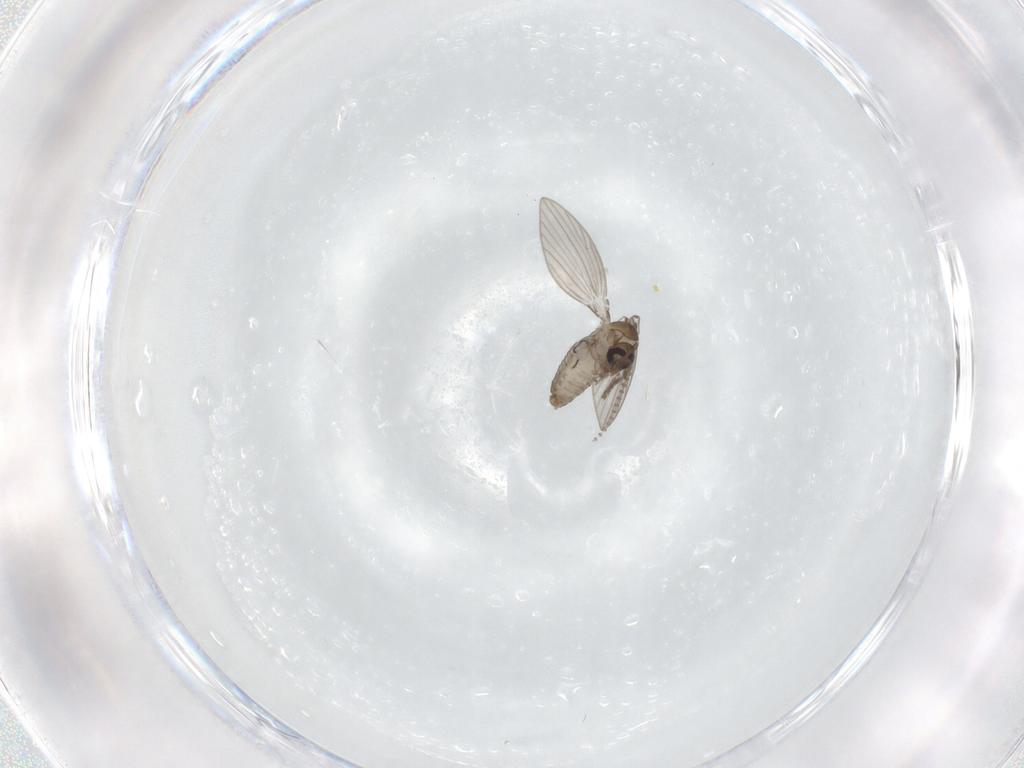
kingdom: Animalia
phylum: Arthropoda
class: Insecta
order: Diptera
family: Psychodidae
